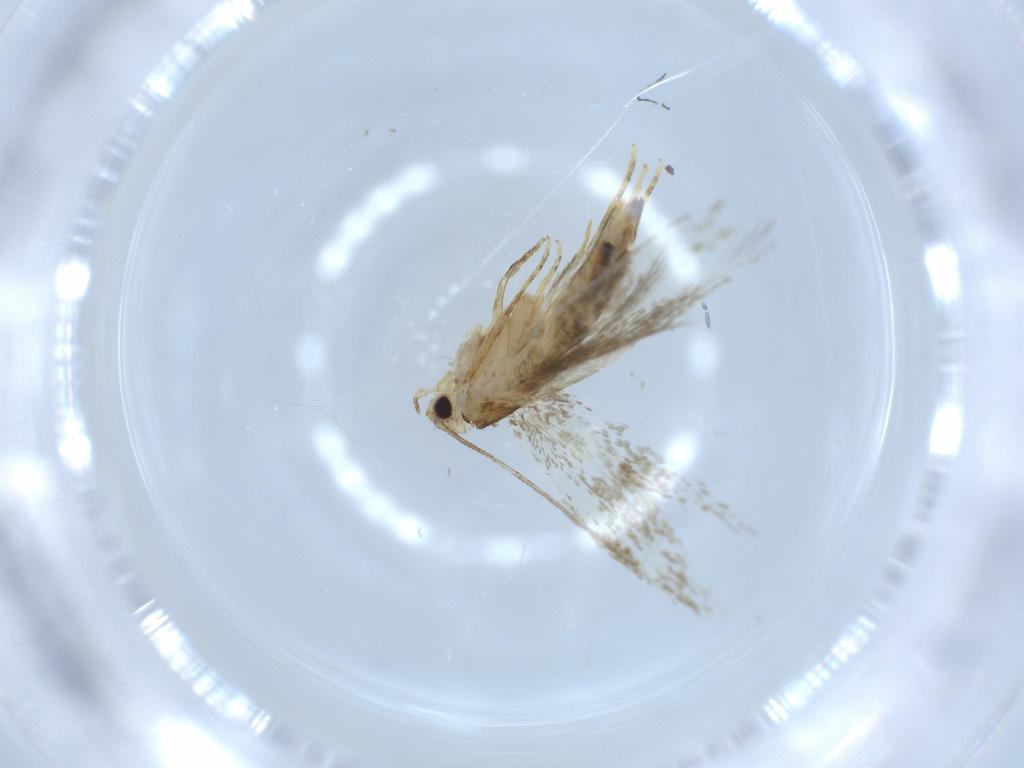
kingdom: Animalia
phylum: Arthropoda
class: Insecta
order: Lepidoptera
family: Tineidae
